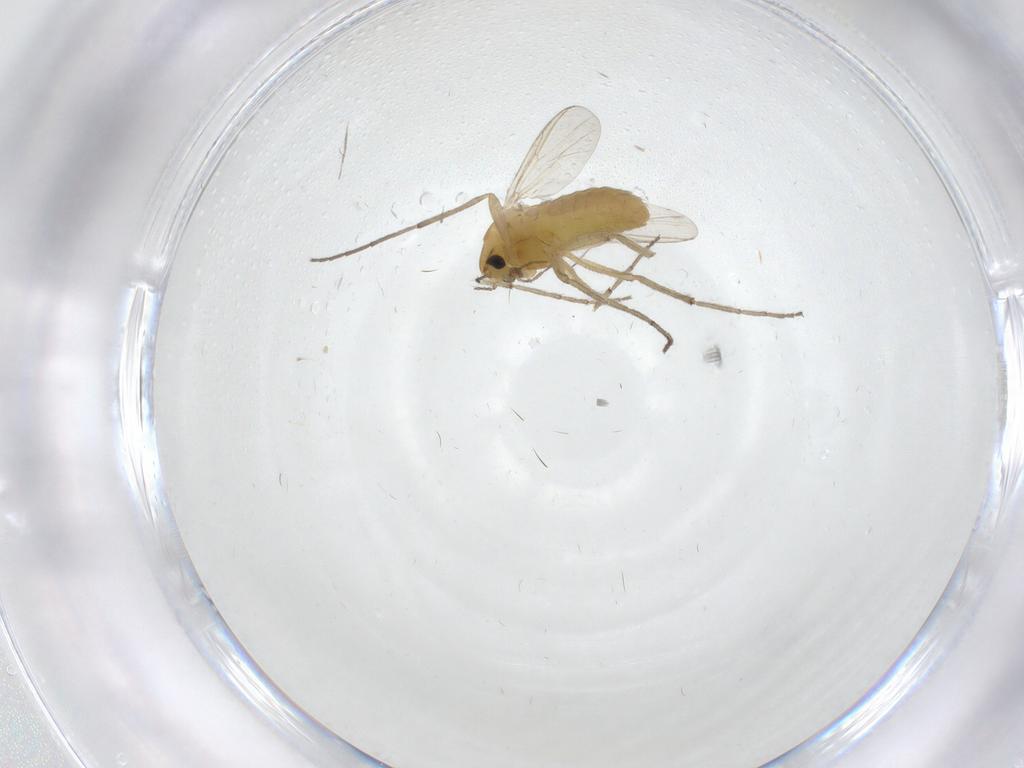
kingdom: Animalia
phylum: Arthropoda
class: Insecta
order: Diptera
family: Chironomidae
